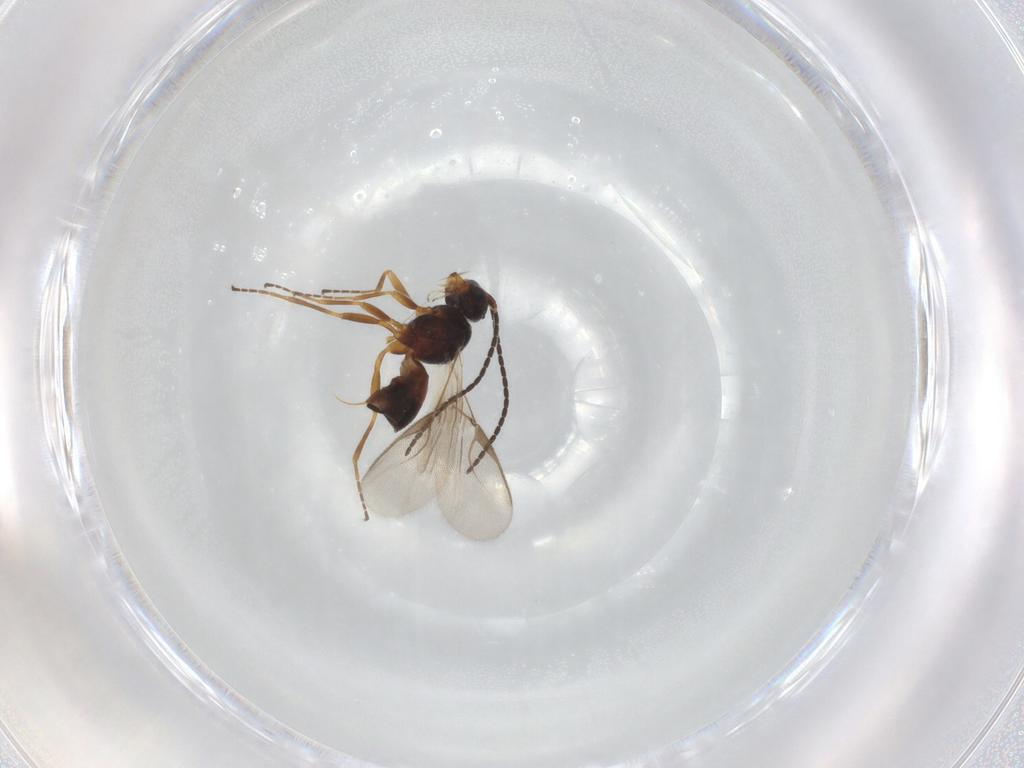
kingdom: Animalia
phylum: Arthropoda
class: Insecta
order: Hymenoptera
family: Braconidae
